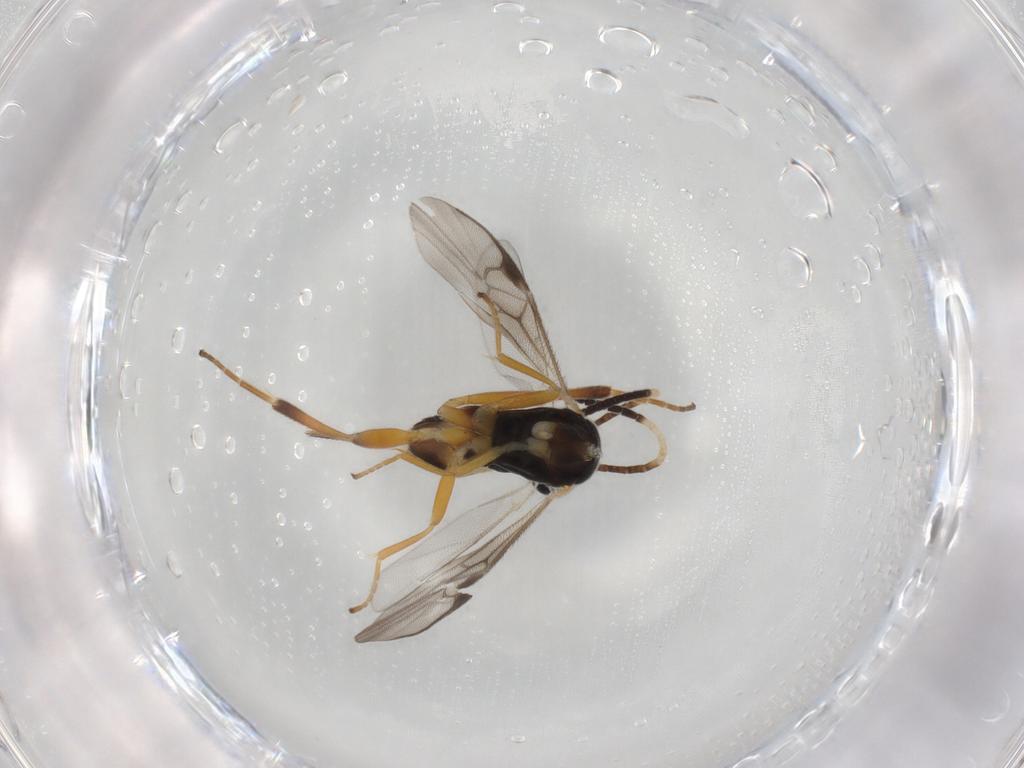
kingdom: Animalia
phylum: Arthropoda
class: Insecta
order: Hymenoptera
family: Braconidae
